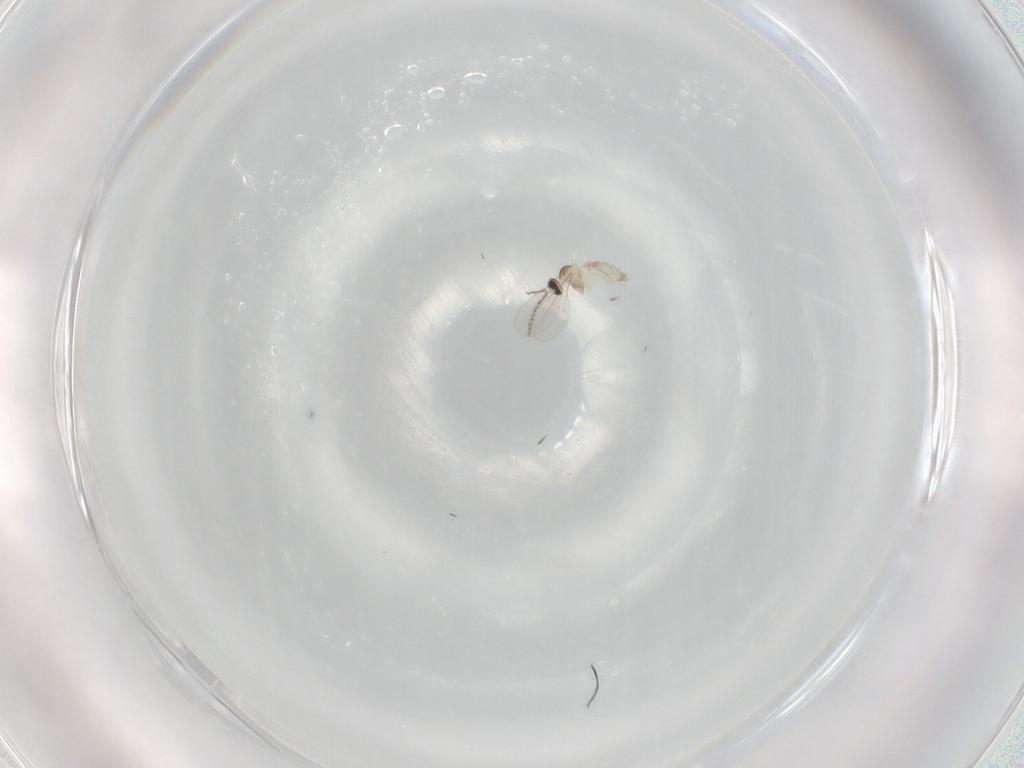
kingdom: Animalia
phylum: Arthropoda
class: Insecta
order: Diptera
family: Cecidomyiidae
